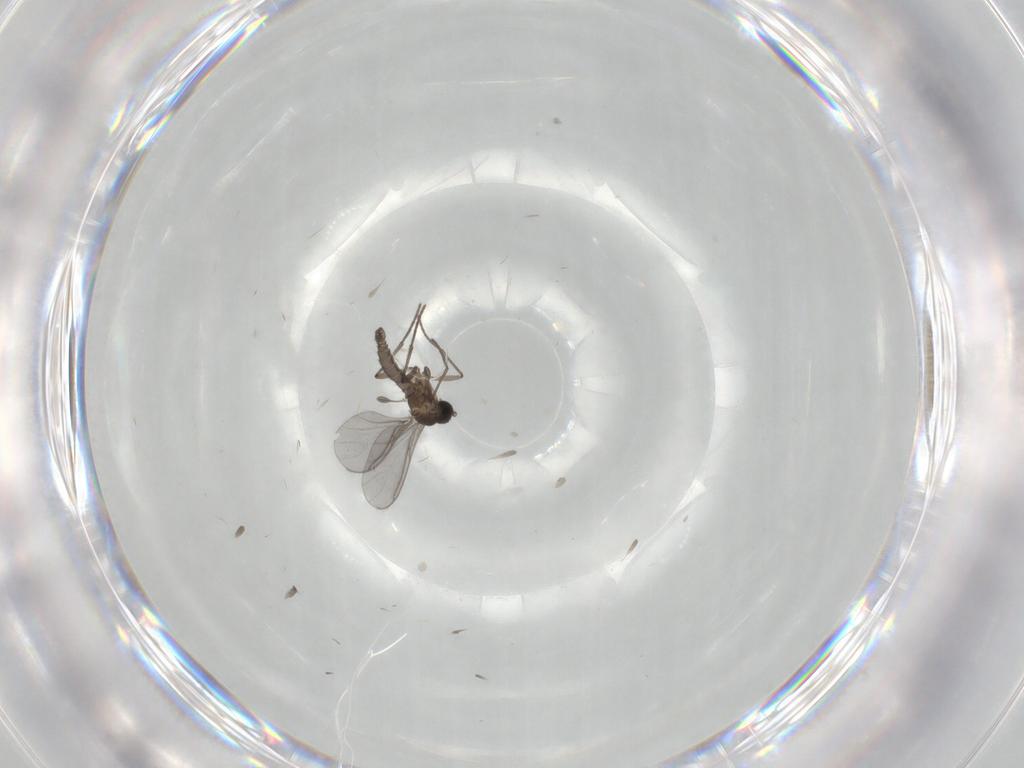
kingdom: Animalia
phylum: Arthropoda
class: Insecta
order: Diptera
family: Sciaridae
